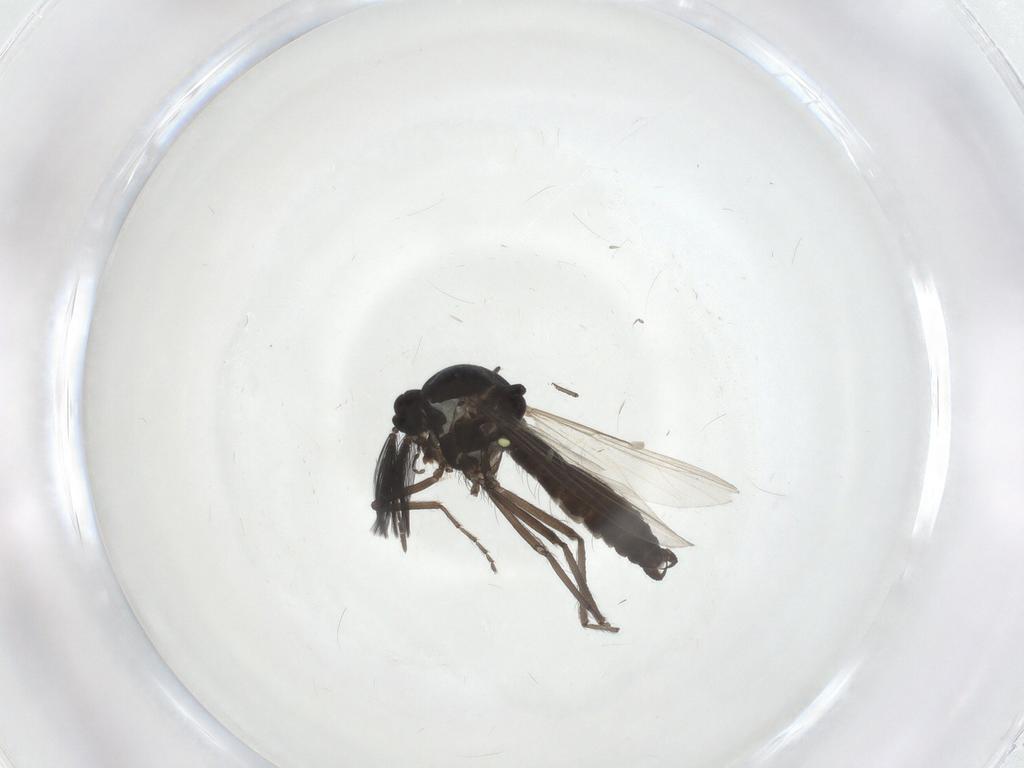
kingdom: Animalia
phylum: Arthropoda
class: Insecta
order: Diptera
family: Ceratopogonidae
